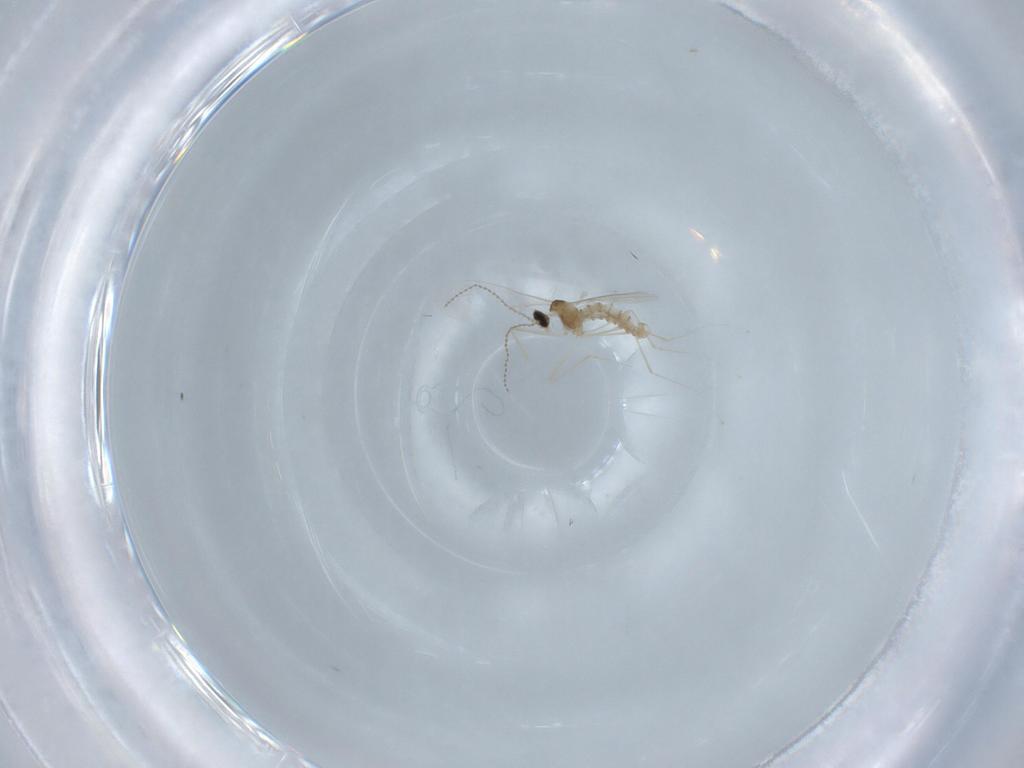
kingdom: Animalia
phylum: Arthropoda
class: Insecta
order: Diptera
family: Cecidomyiidae
